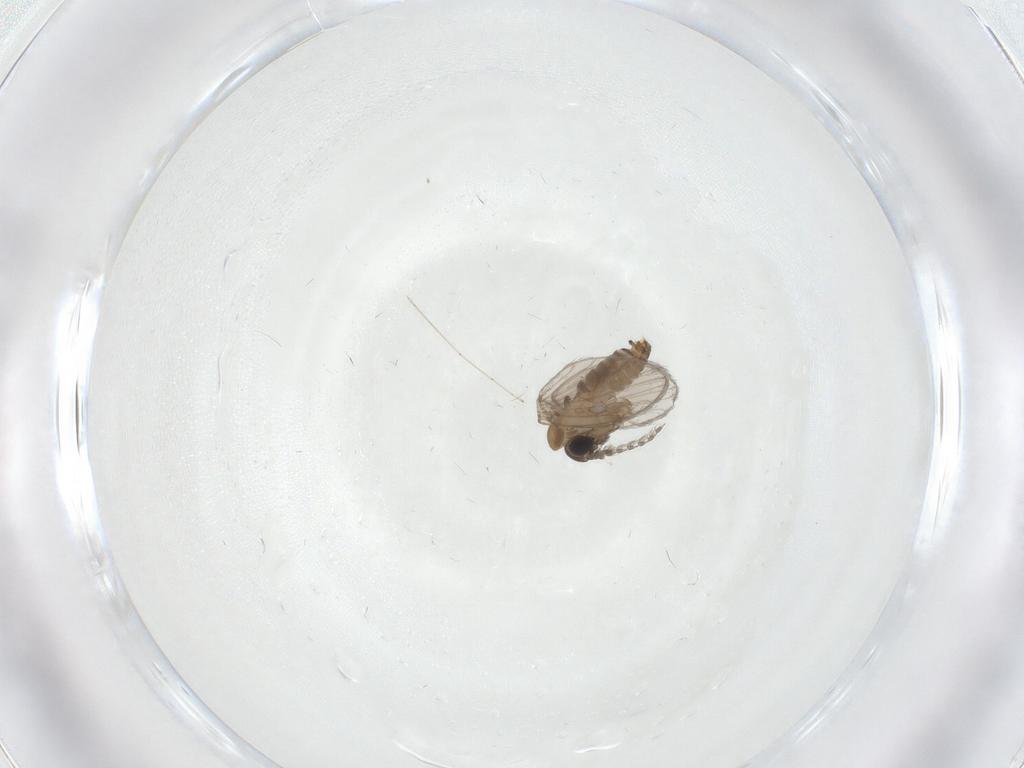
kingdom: Animalia
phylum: Arthropoda
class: Insecta
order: Diptera
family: Cecidomyiidae
